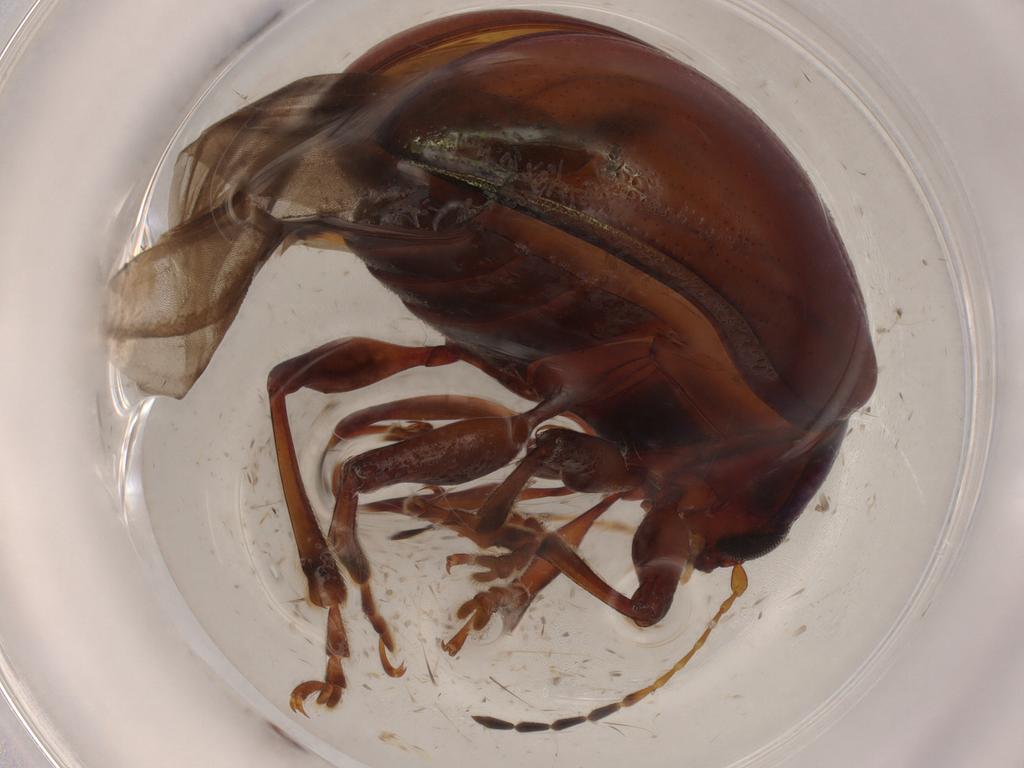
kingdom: Animalia
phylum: Arthropoda
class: Insecta
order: Coleoptera
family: Chrysomelidae
